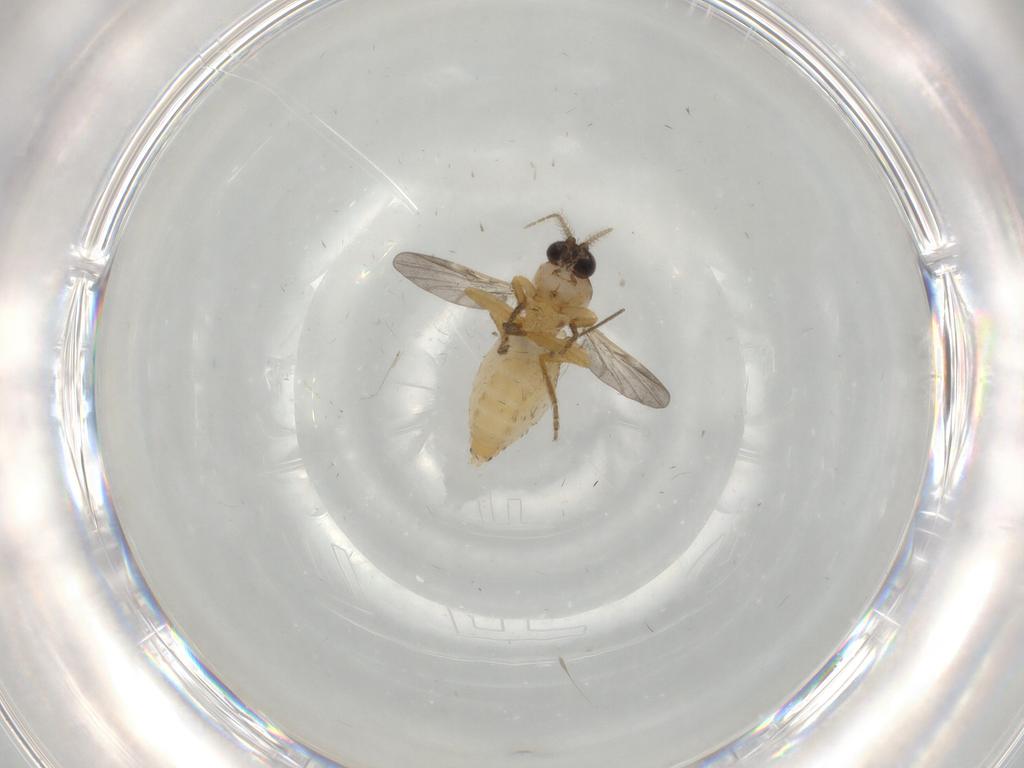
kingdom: Animalia
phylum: Arthropoda
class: Insecta
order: Diptera
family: Ceratopogonidae
